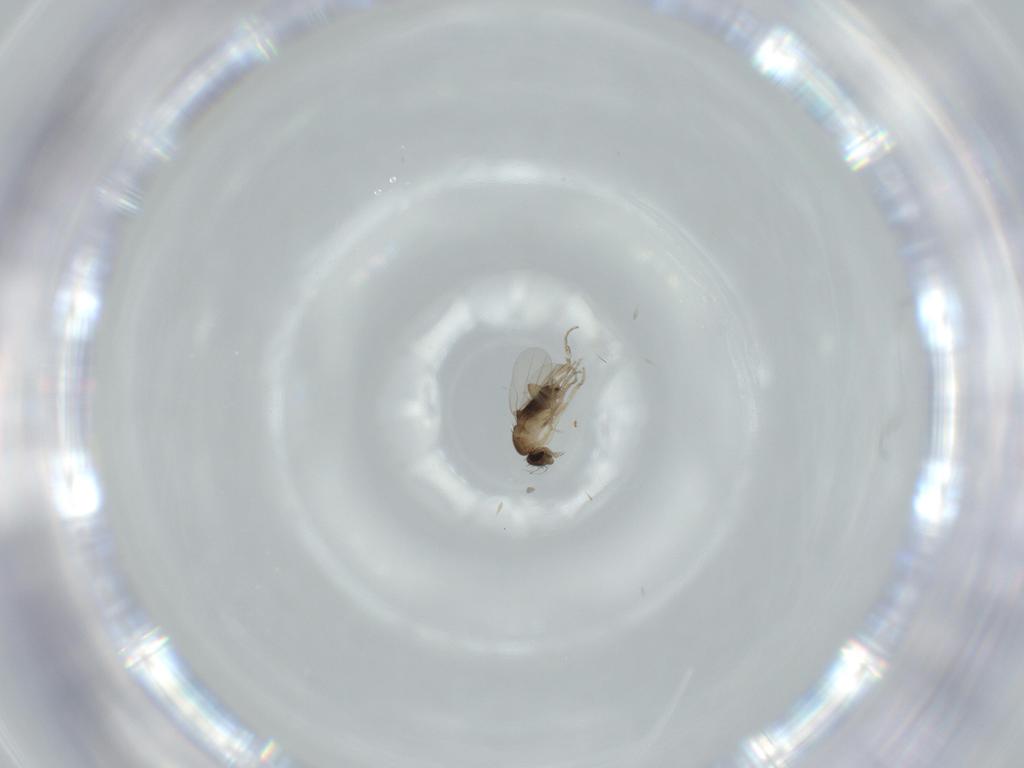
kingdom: Animalia
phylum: Arthropoda
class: Insecta
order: Diptera
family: Phoridae
